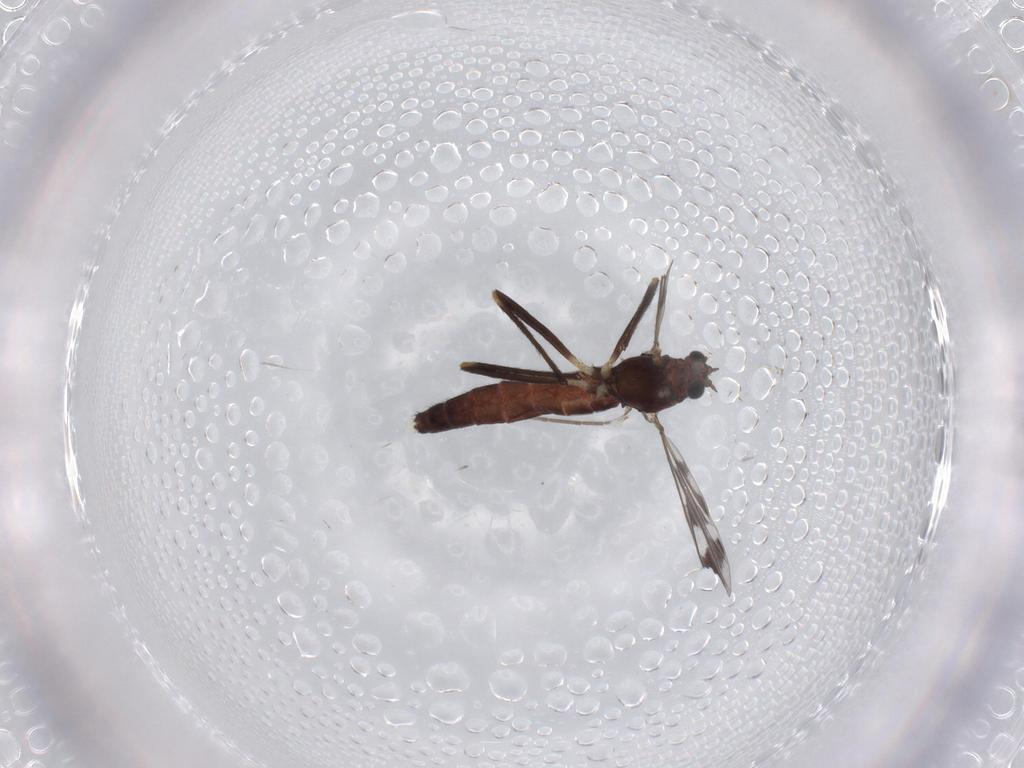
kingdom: Animalia
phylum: Arthropoda
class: Insecta
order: Diptera
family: Chironomidae
